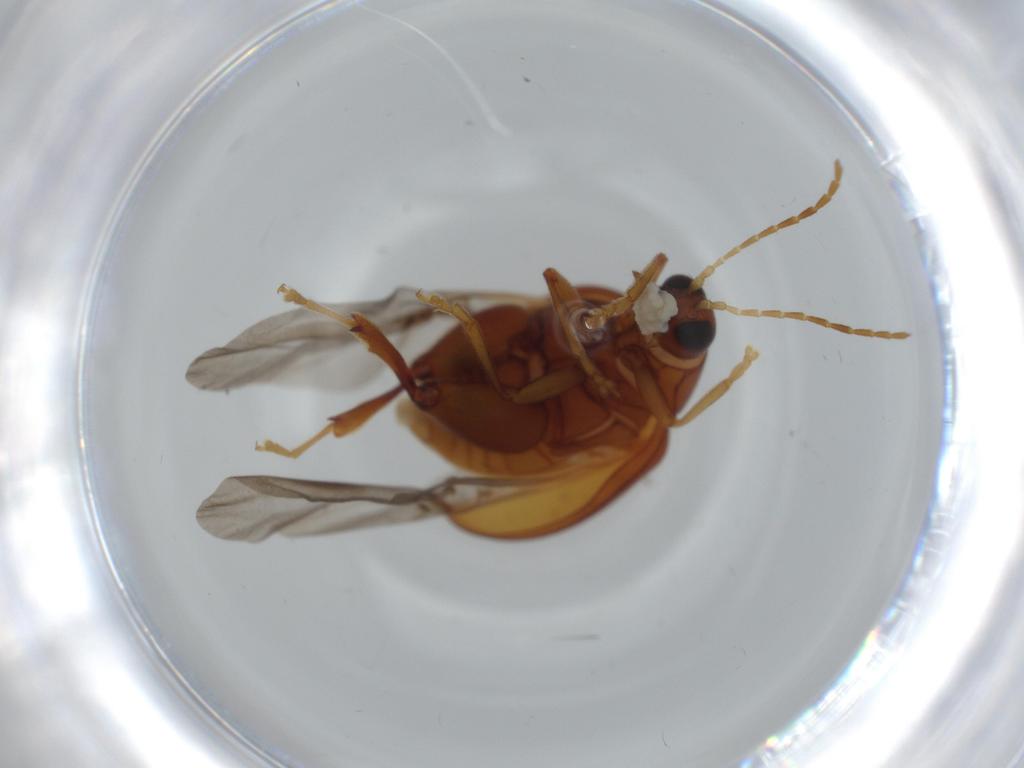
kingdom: Animalia
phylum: Arthropoda
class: Insecta
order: Coleoptera
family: Chrysomelidae
